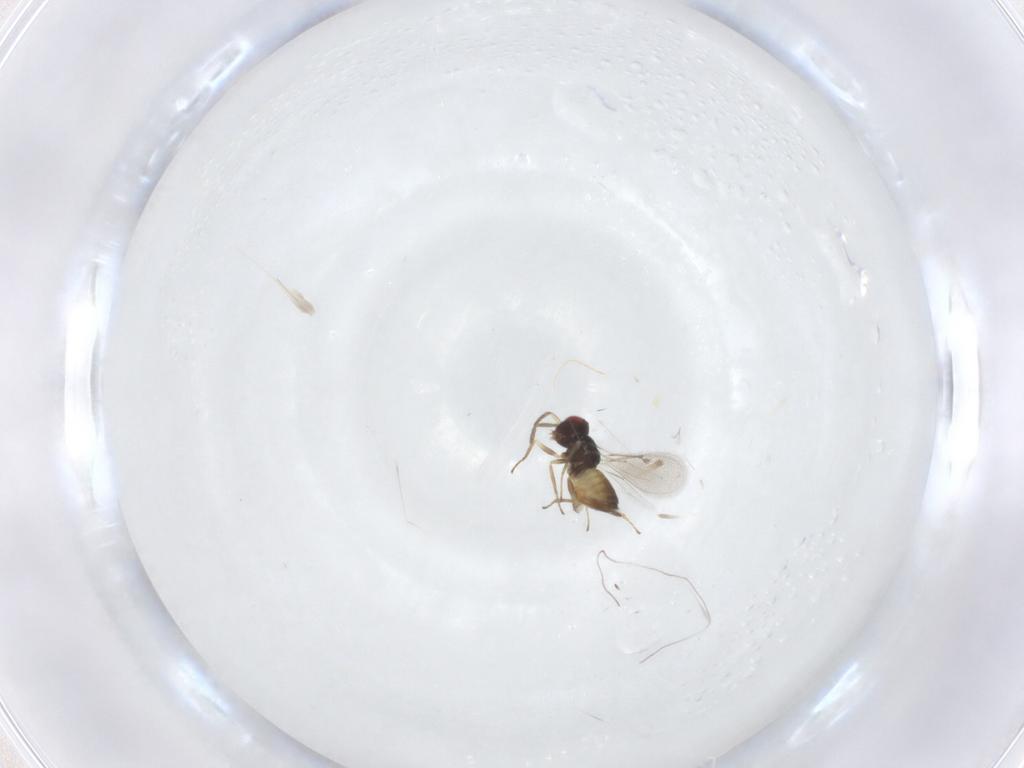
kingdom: Animalia
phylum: Arthropoda
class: Insecta
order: Hymenoptera
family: Eulophidae
